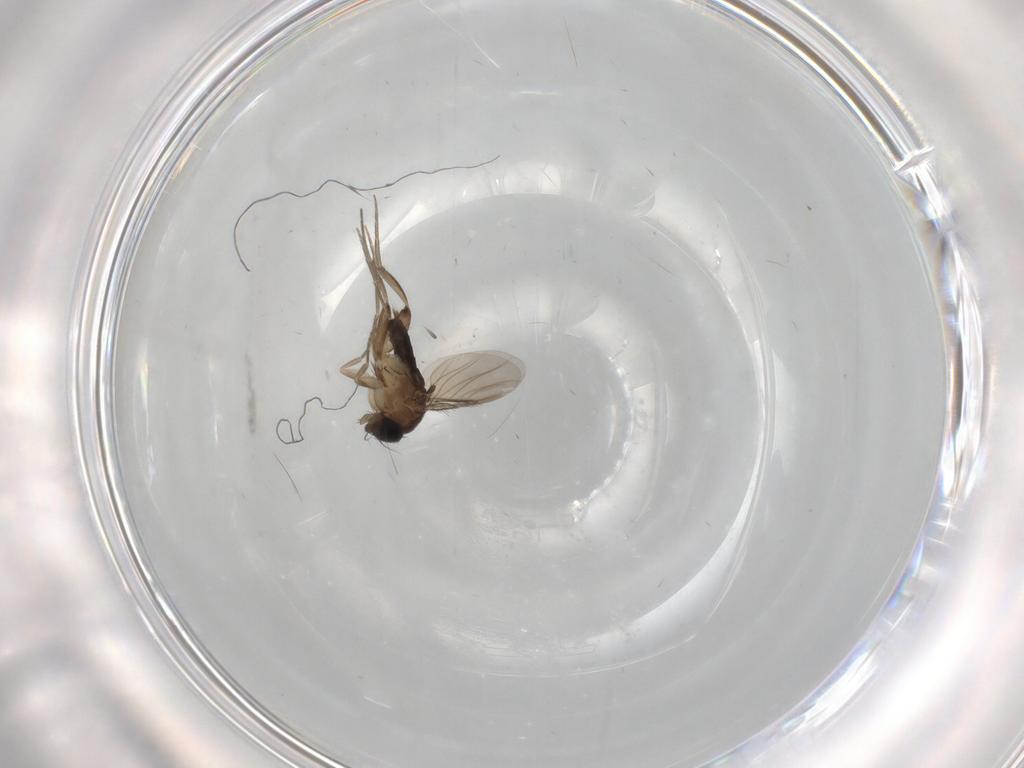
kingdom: Animalia
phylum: Arthropoda
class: Insecta
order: Diptera
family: Phoridae
